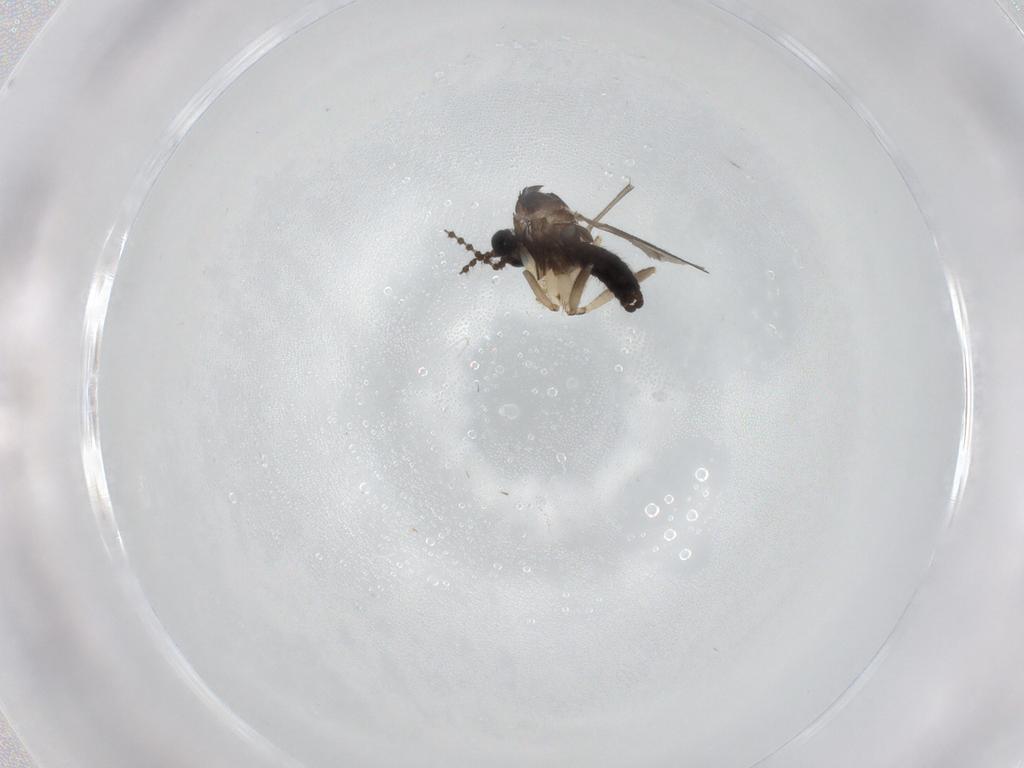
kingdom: Animalia
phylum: Arthropoda
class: Insecta
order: Diptera
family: Sciaridae
